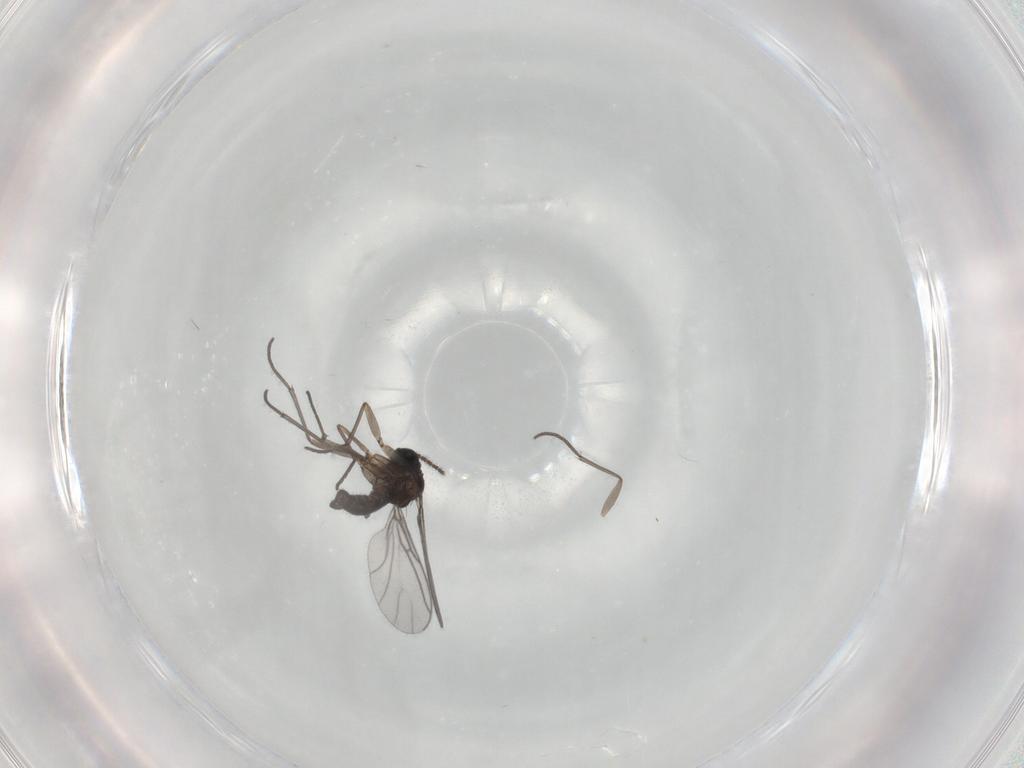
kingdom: Animalia
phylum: Arthropoda
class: Insecta
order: Diptera
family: Sciaridae
